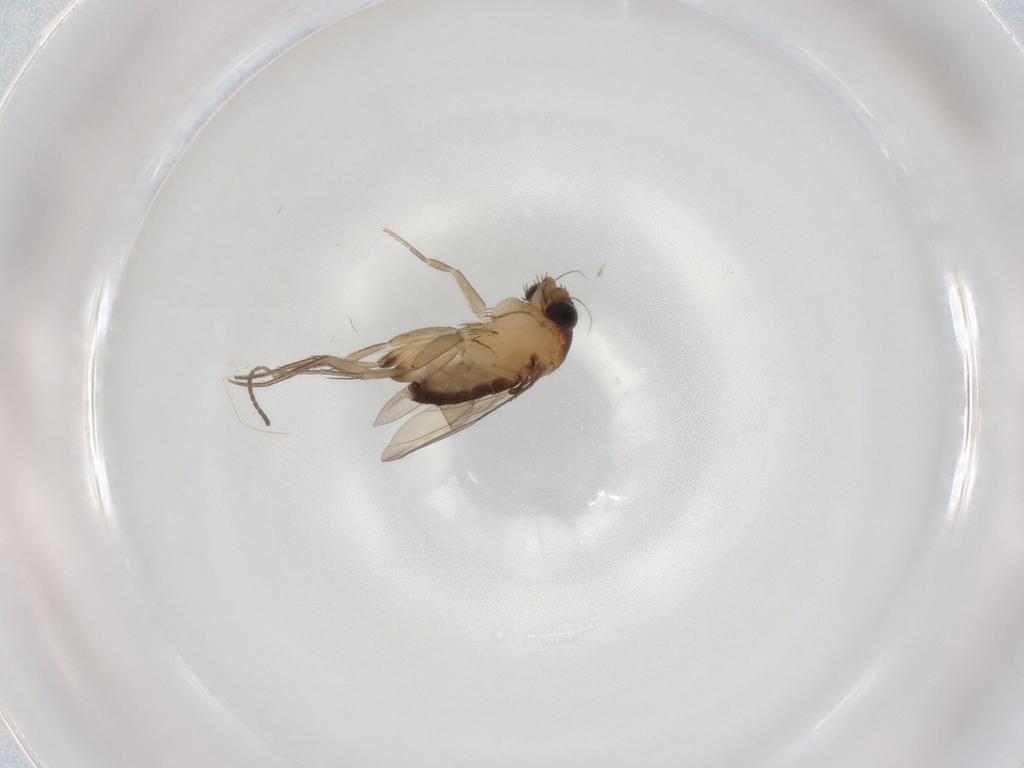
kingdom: Animalia
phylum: Arthropoda
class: Insecta
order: Diptera
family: Phoridae
